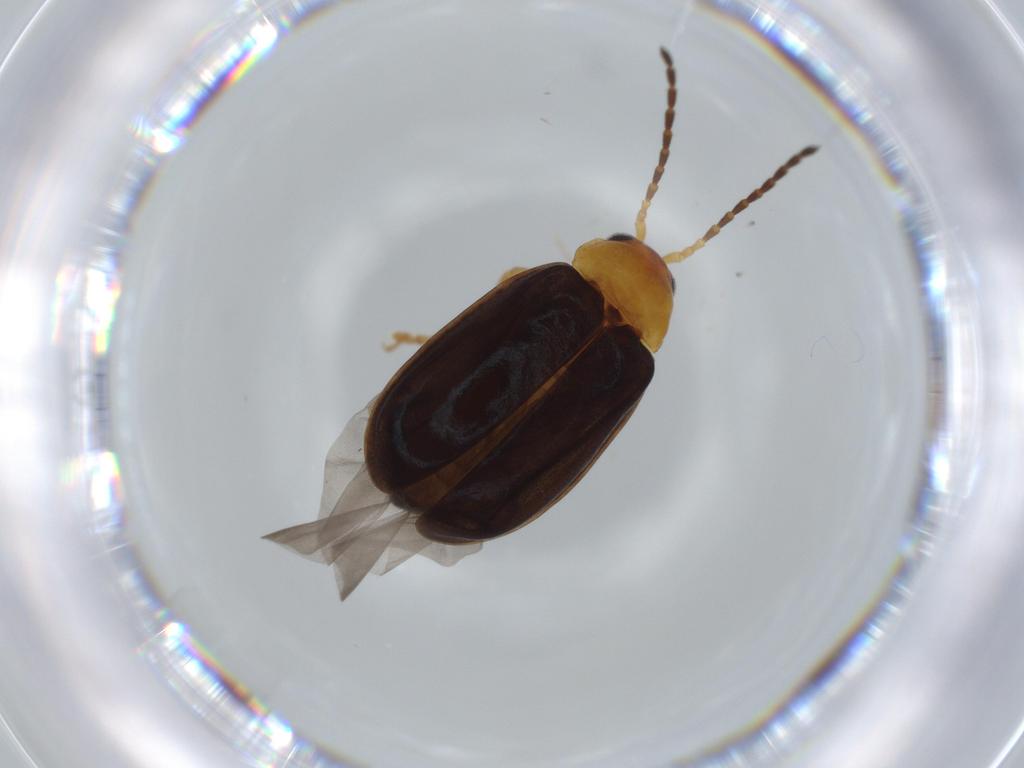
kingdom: Animalia
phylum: Arthropoda
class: Insecta
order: Coleoptera
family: Chrysomelidae
